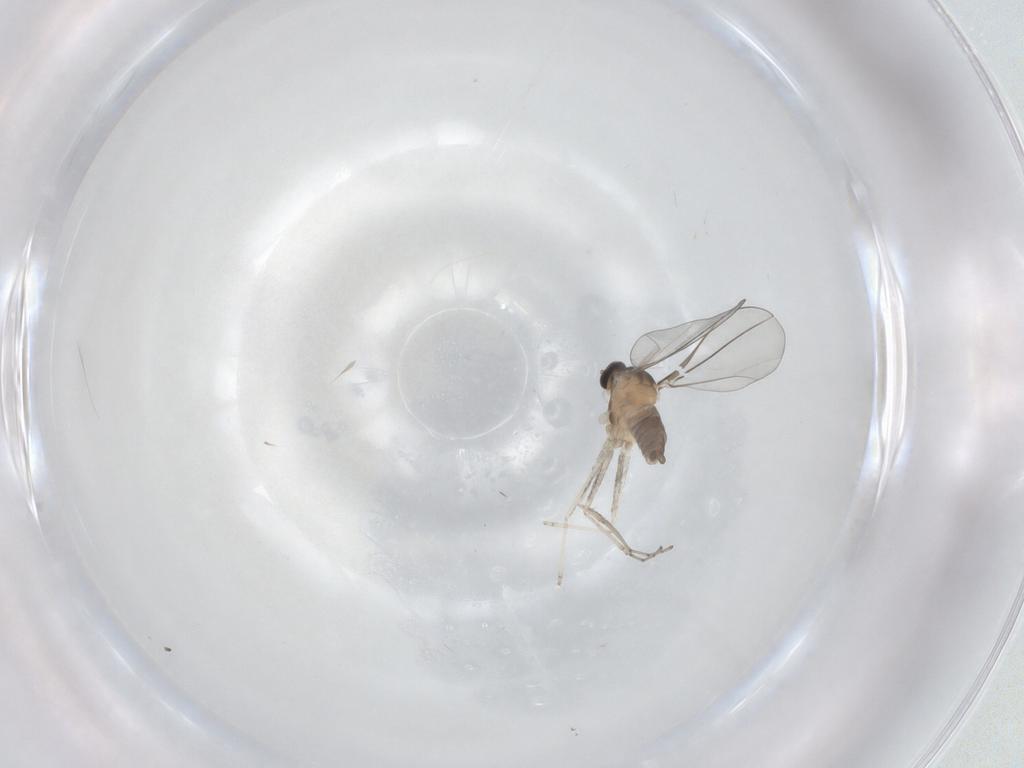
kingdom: Animalia
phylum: Arthropoda
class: Insecta
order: Diptera
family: Cecidomyiidae
